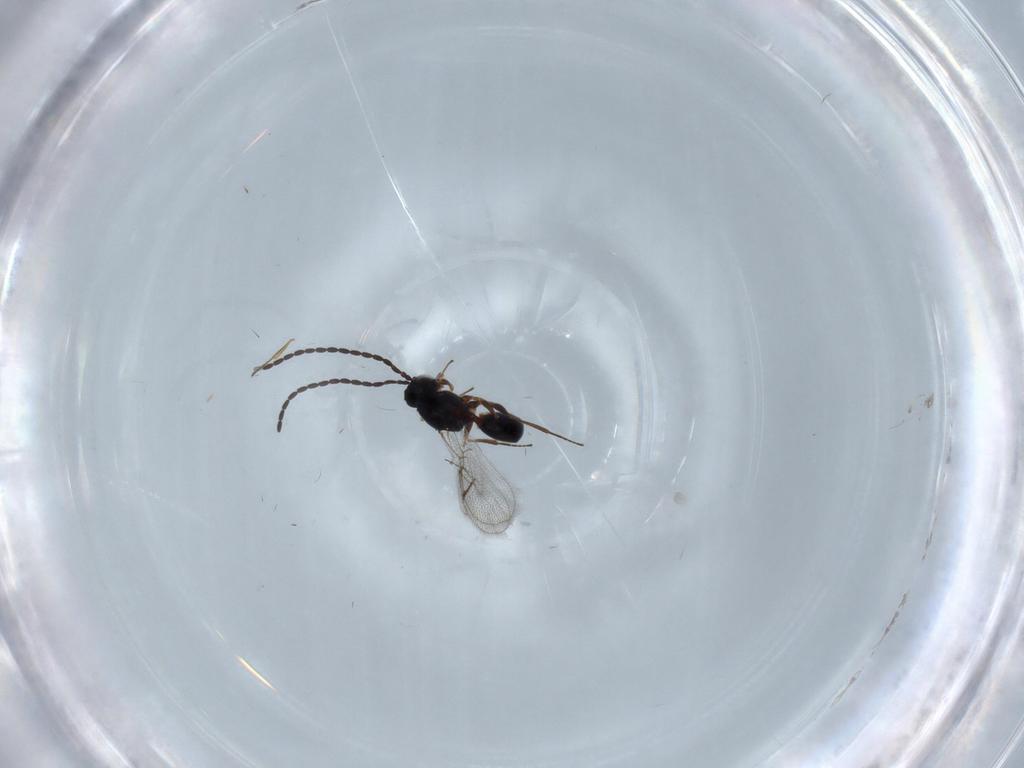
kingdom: Animalia
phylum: Arthropoda
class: Insecta
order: Hymenoptera
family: Figitidae
